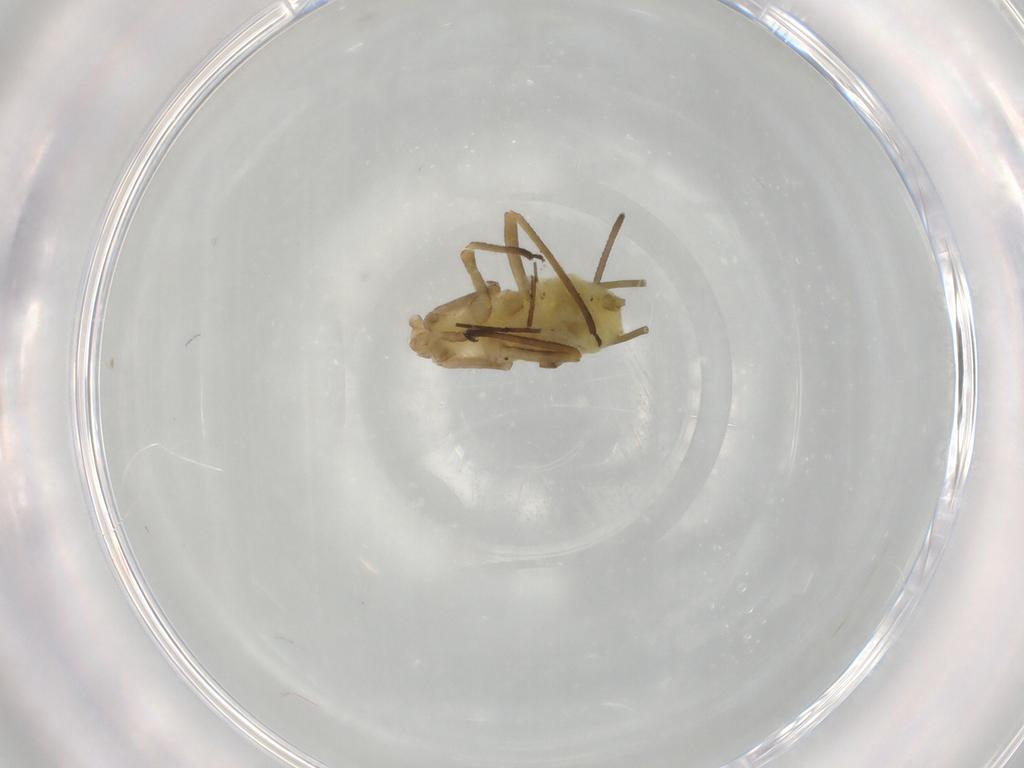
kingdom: Animalia
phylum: Arthropoda
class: Insecta
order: Hemiptera
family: Aphididae
